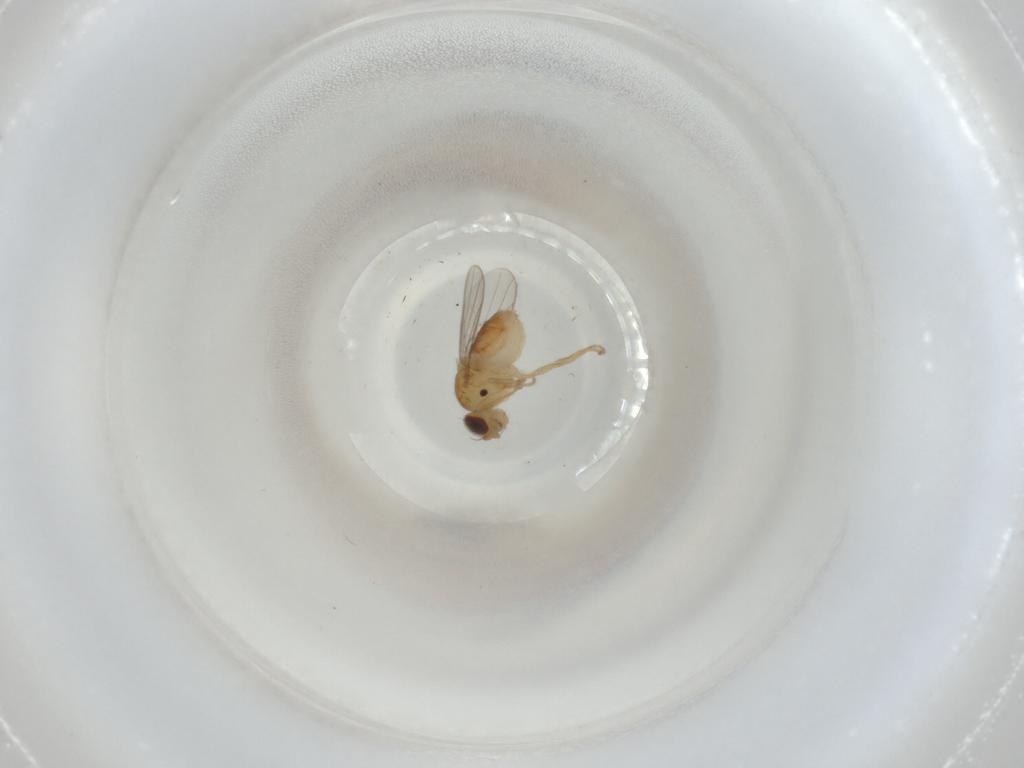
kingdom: Animalia
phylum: Arthropoda
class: Insecta
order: Diptera
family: Chloropidae
